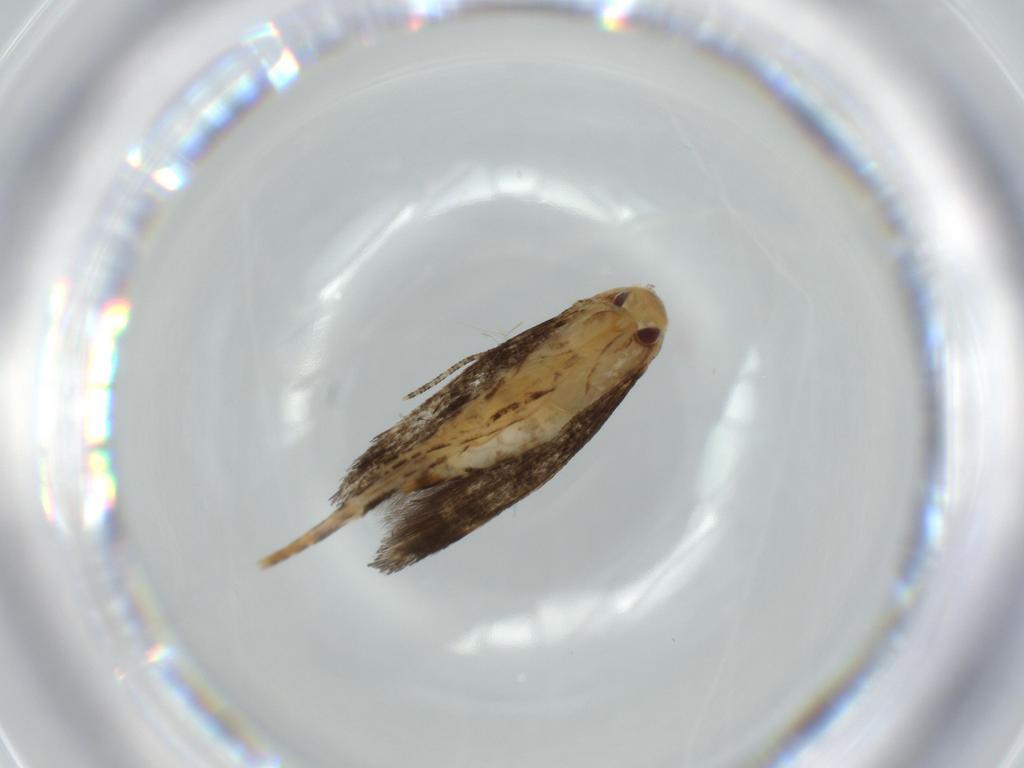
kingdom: Animalia
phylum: Arthropoda
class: Insecta
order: Lepidoptera
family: Momphidae
